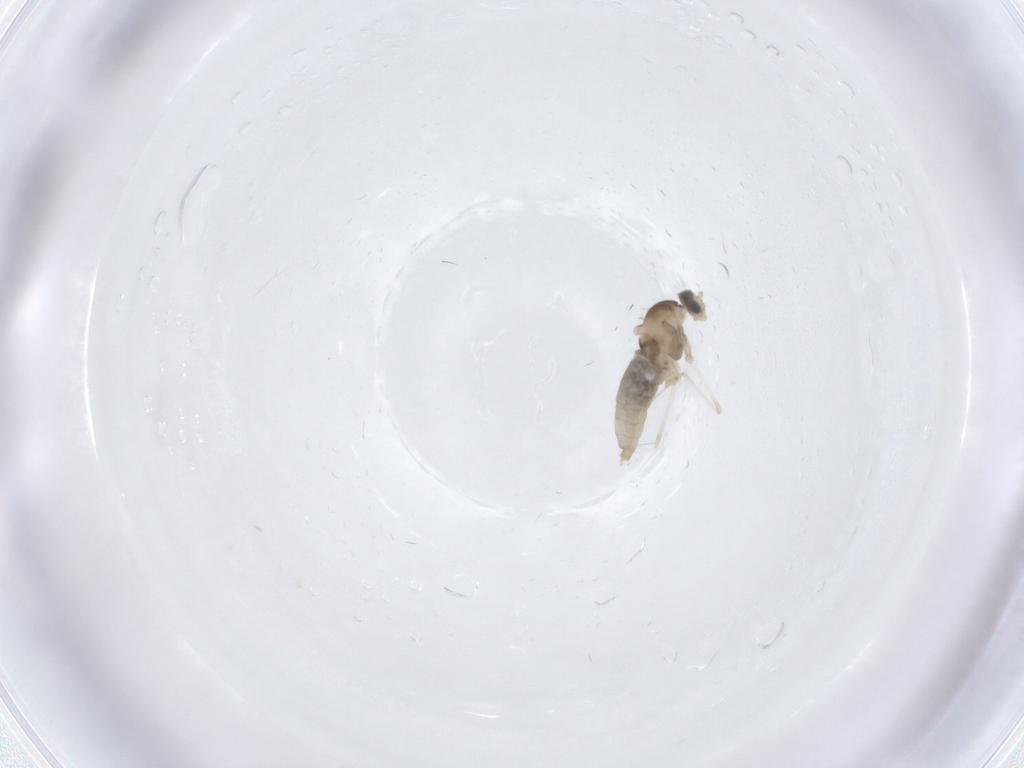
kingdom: Animalia
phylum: Arthropoda
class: Insecta
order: Diptera
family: Cecidomyiidae
